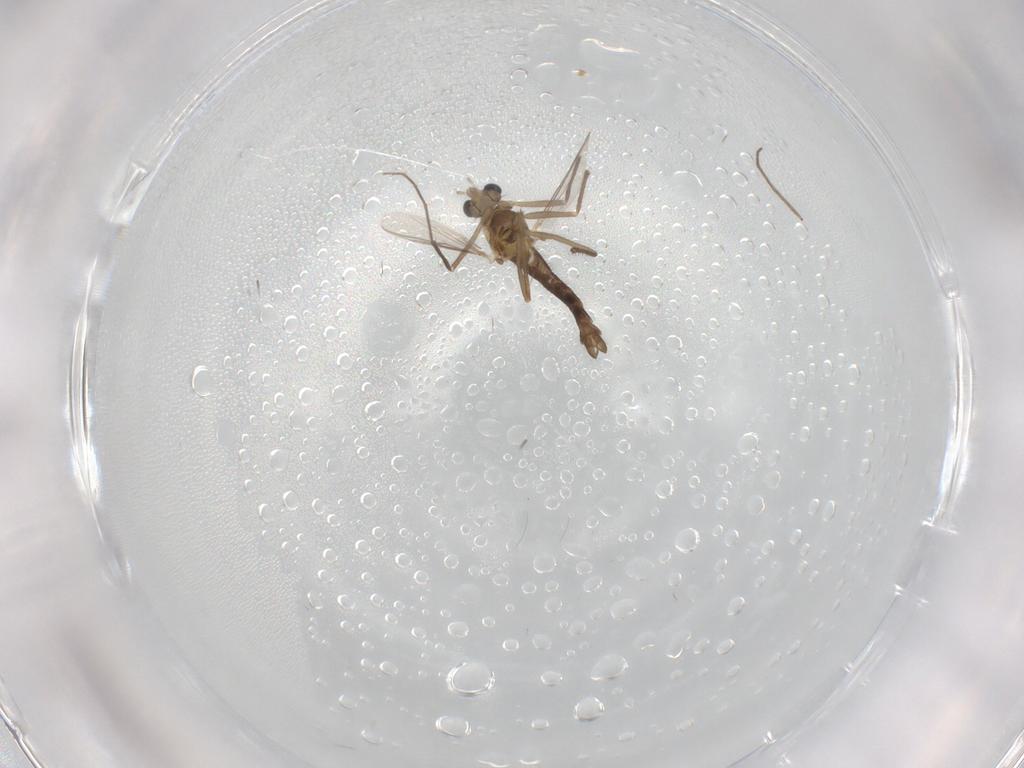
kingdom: Animalia
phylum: Arthropoda
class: Insecta
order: Diptera
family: Chironomidae
